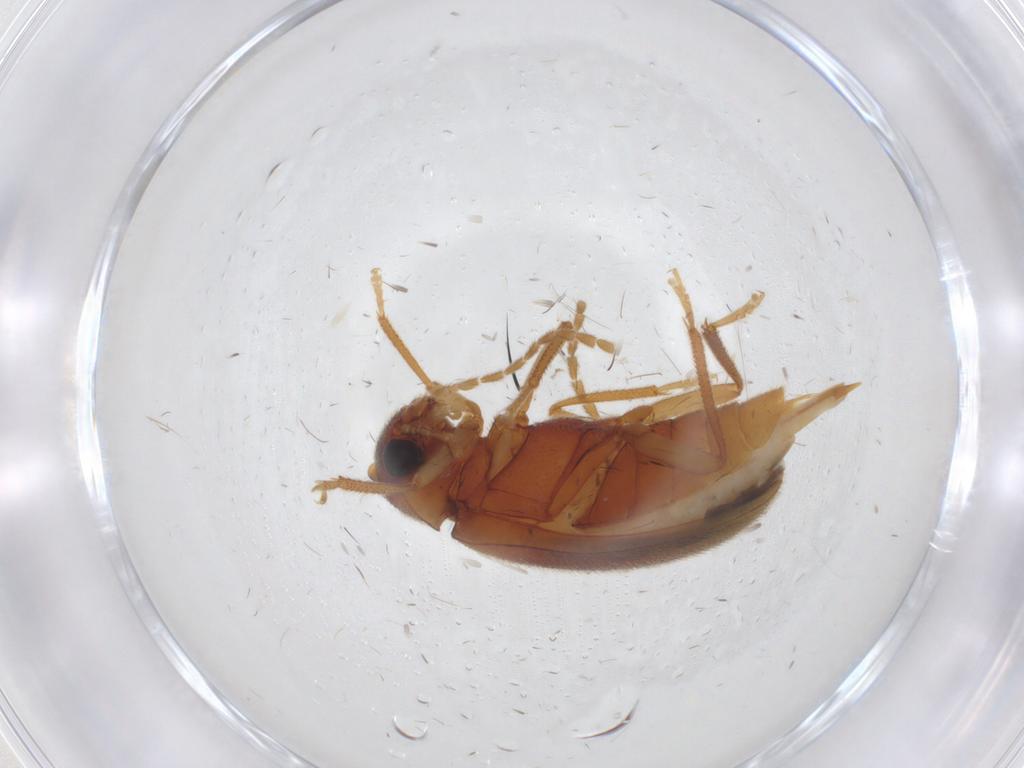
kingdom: Animalia
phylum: Arthropoda
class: Insecta
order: Coleoptera
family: Ptilodactylidae
